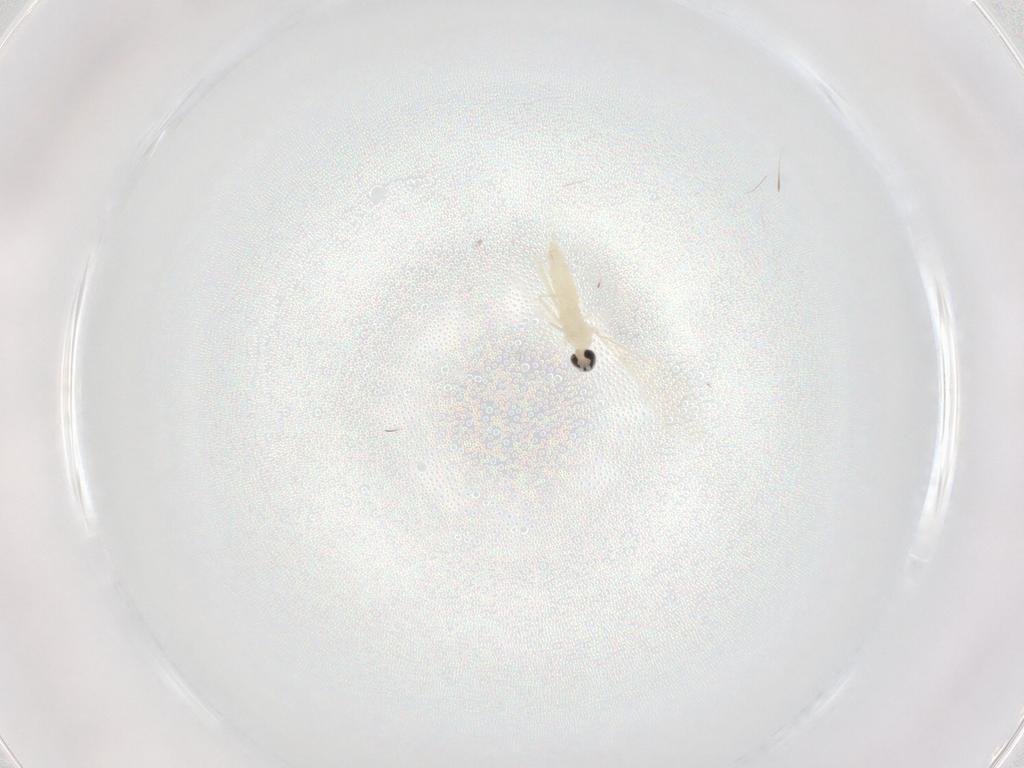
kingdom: Animalia
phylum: Arthropoda
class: Insecta
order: Diptera
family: Cecidomyiidae
